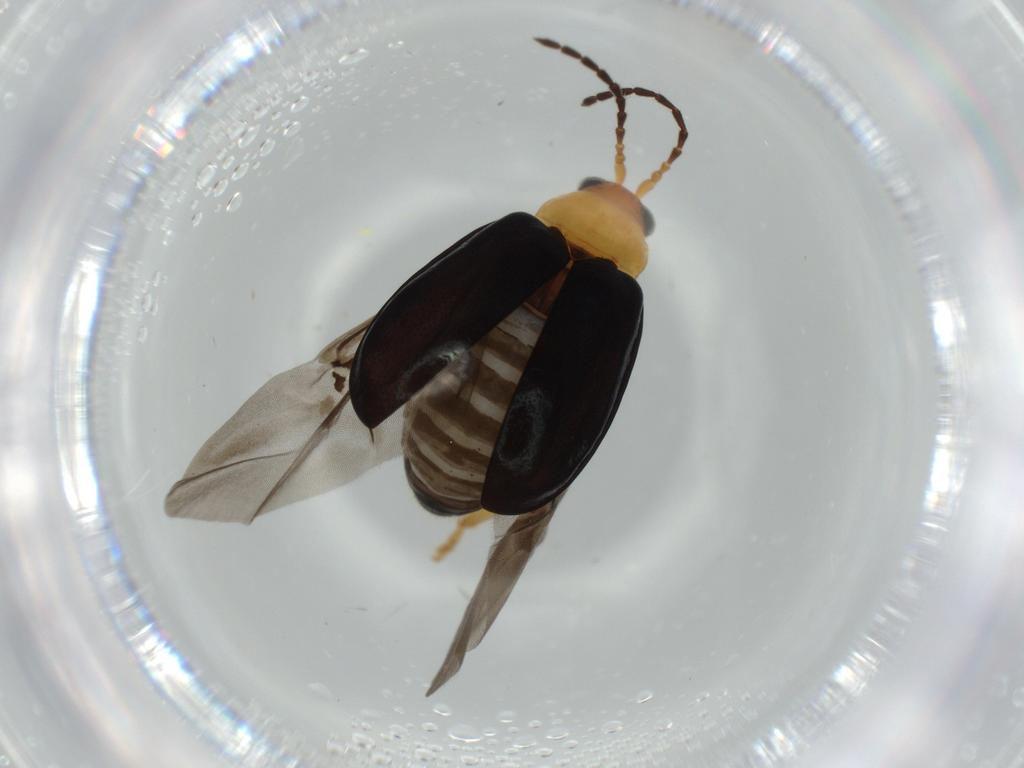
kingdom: Animalia
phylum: Arthropoda
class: Insecta
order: Coleoptera
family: Chrysomelidae
